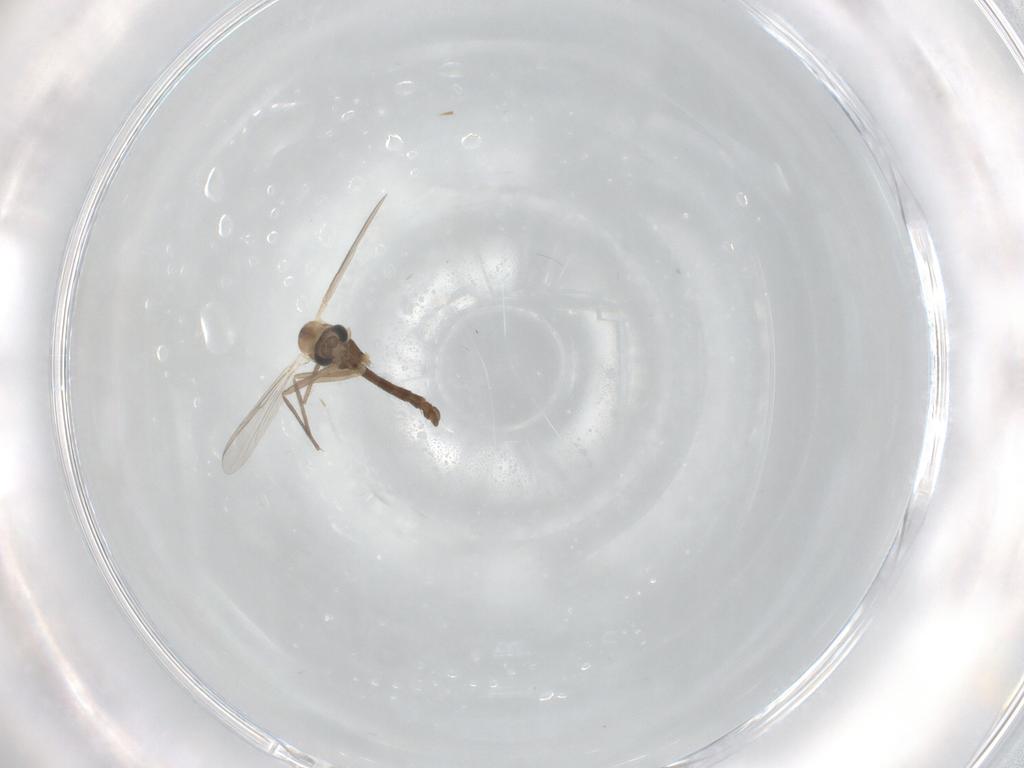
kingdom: Animalia
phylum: Arthropoda
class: Insecta
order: Diptera
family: Chironomidae
